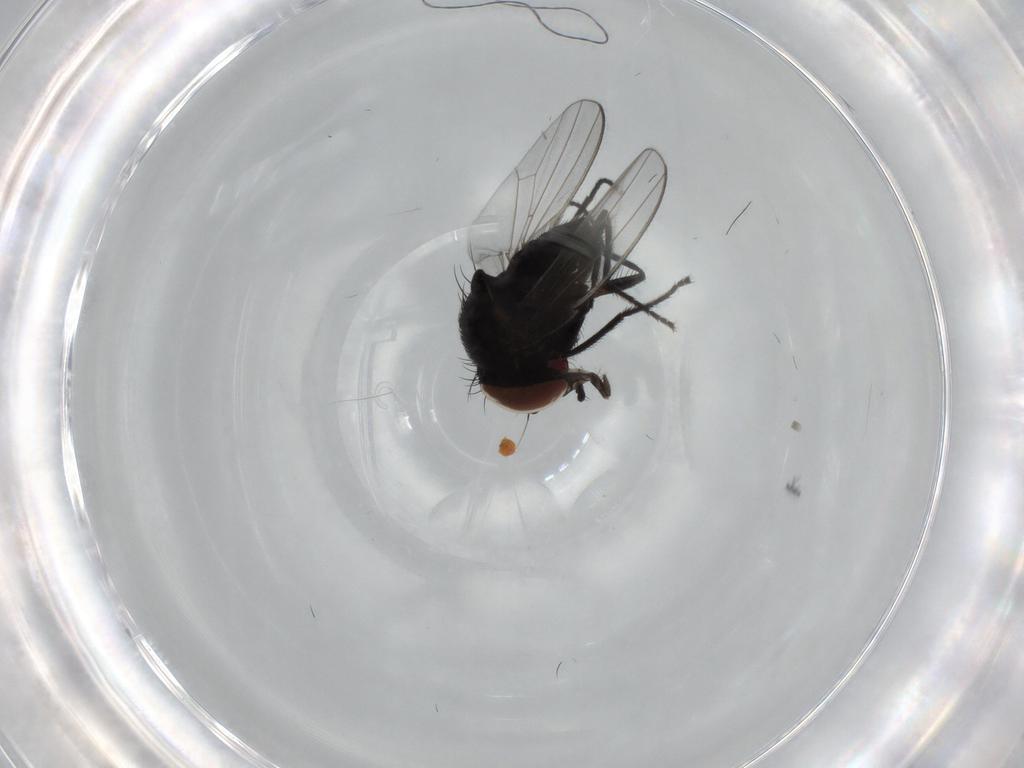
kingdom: Animalia
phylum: Arthropoda
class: Insecta
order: Diptera
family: Milichiidae
